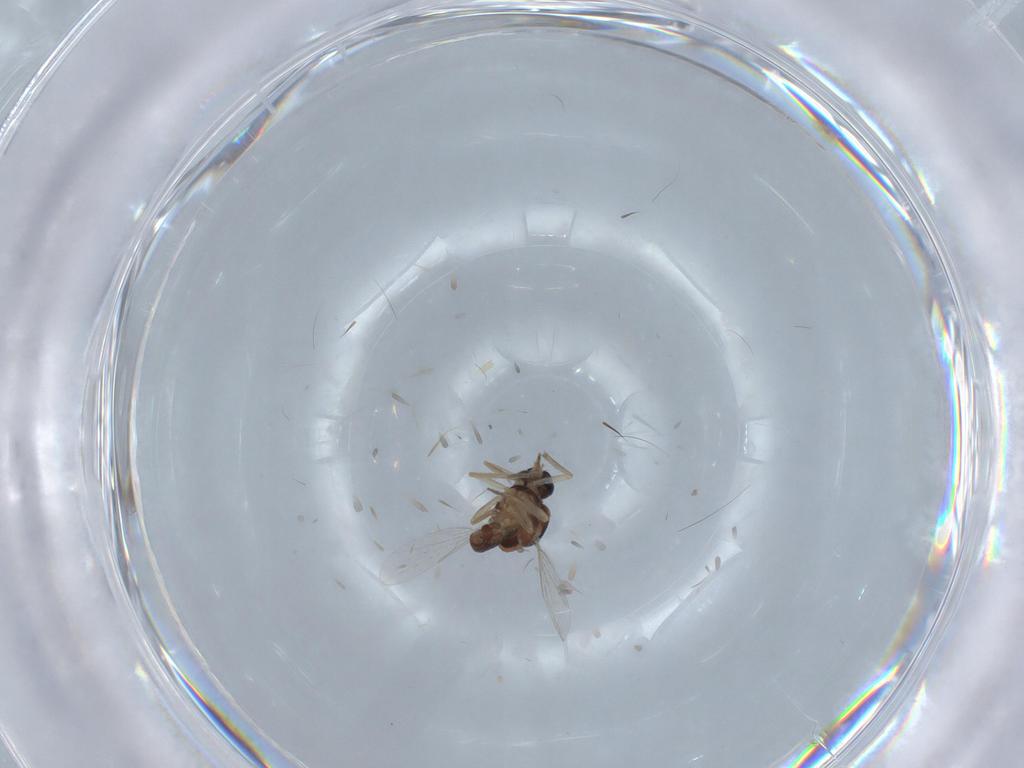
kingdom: Animalia
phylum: Arthropoda
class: Insecta
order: Diptera
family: Ceratopogonidae
